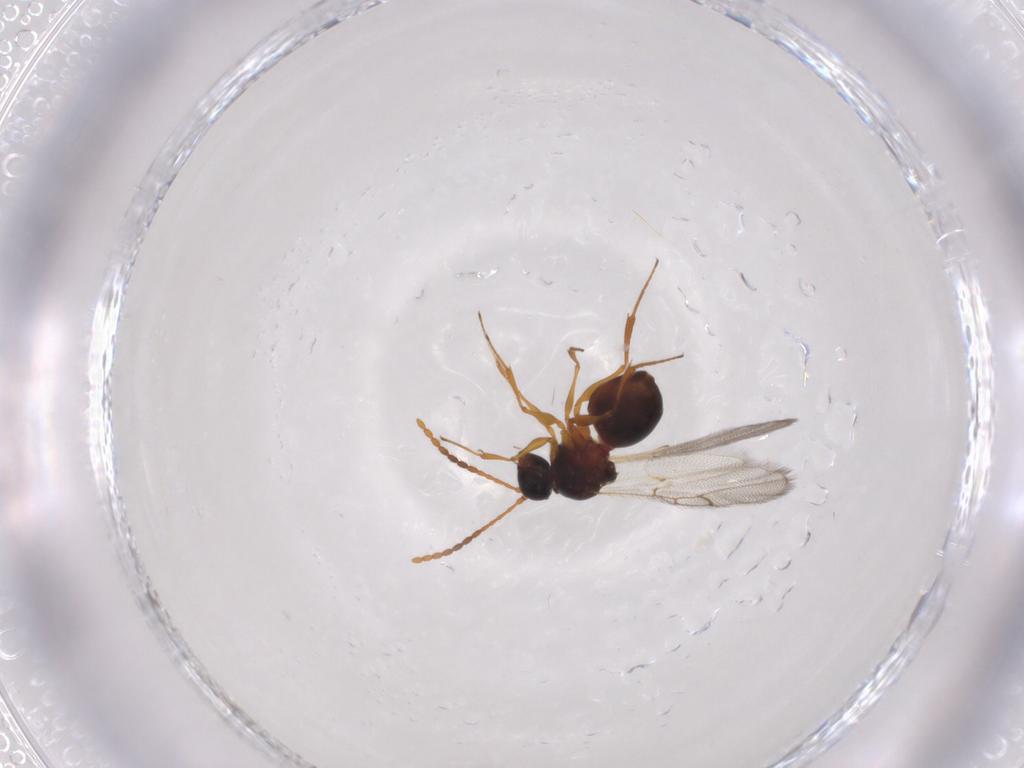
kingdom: Animalia
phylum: Arthropoda
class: Insecta
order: Hymenoptera
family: Figitidae
